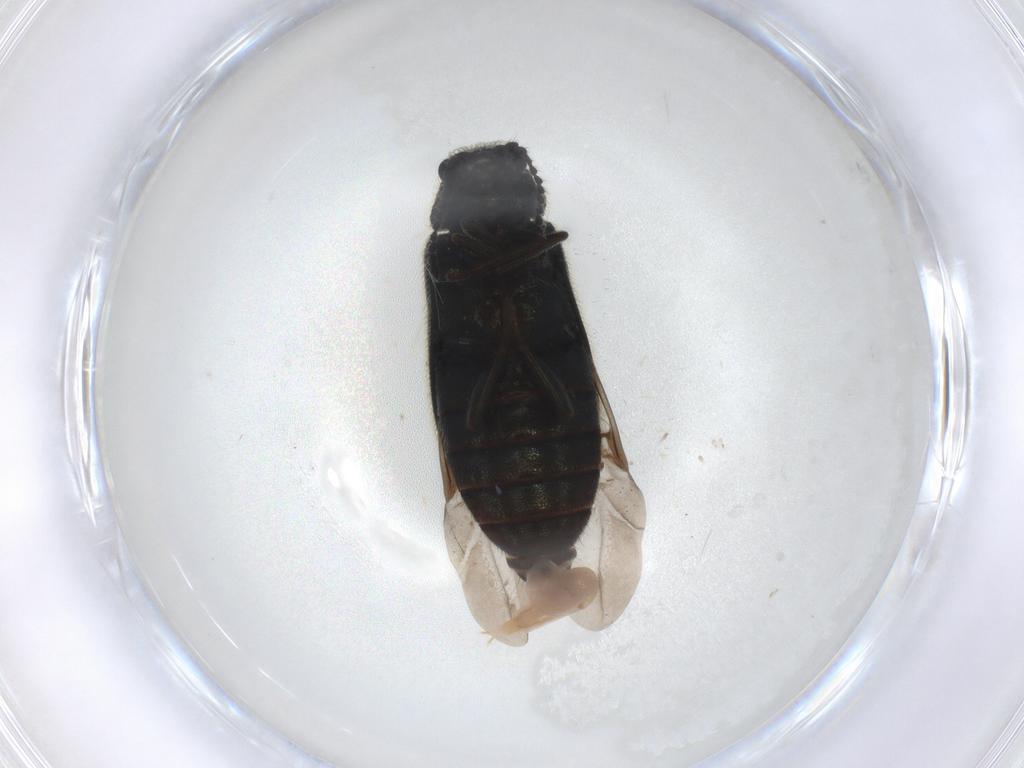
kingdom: Animalia
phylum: Arthropoda
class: Insecta
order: Coleoptera
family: Melyridae
